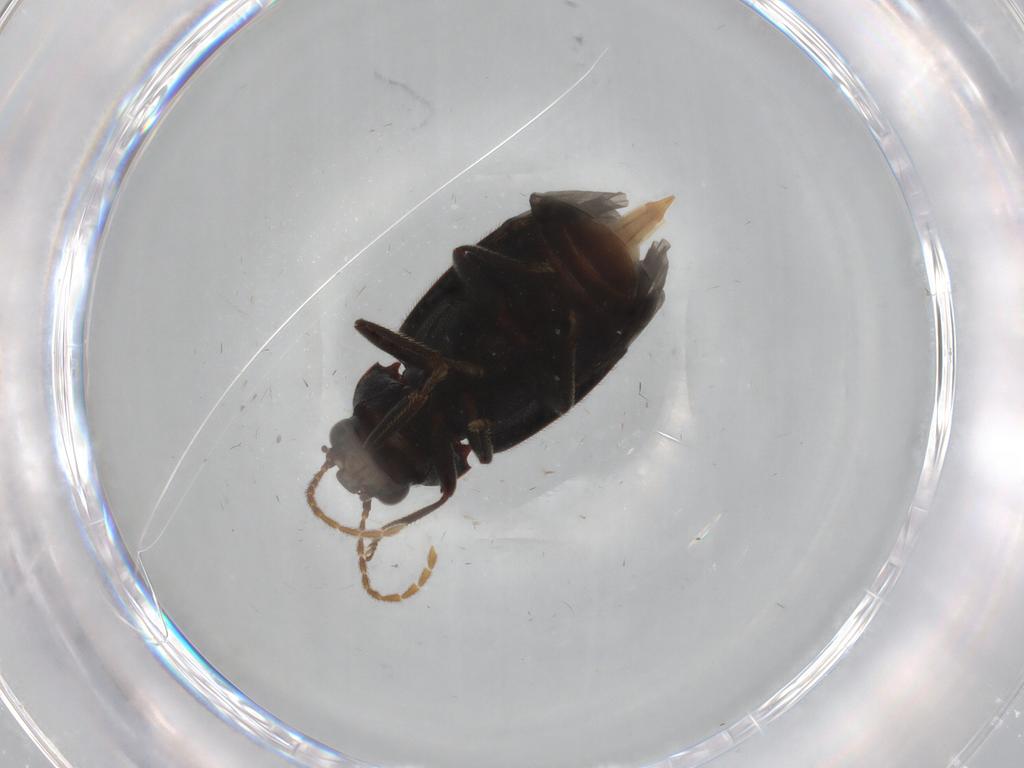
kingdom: Animalia
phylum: Arthropoda
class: Insecta
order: Coleoptera
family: Ptilodactylidae
